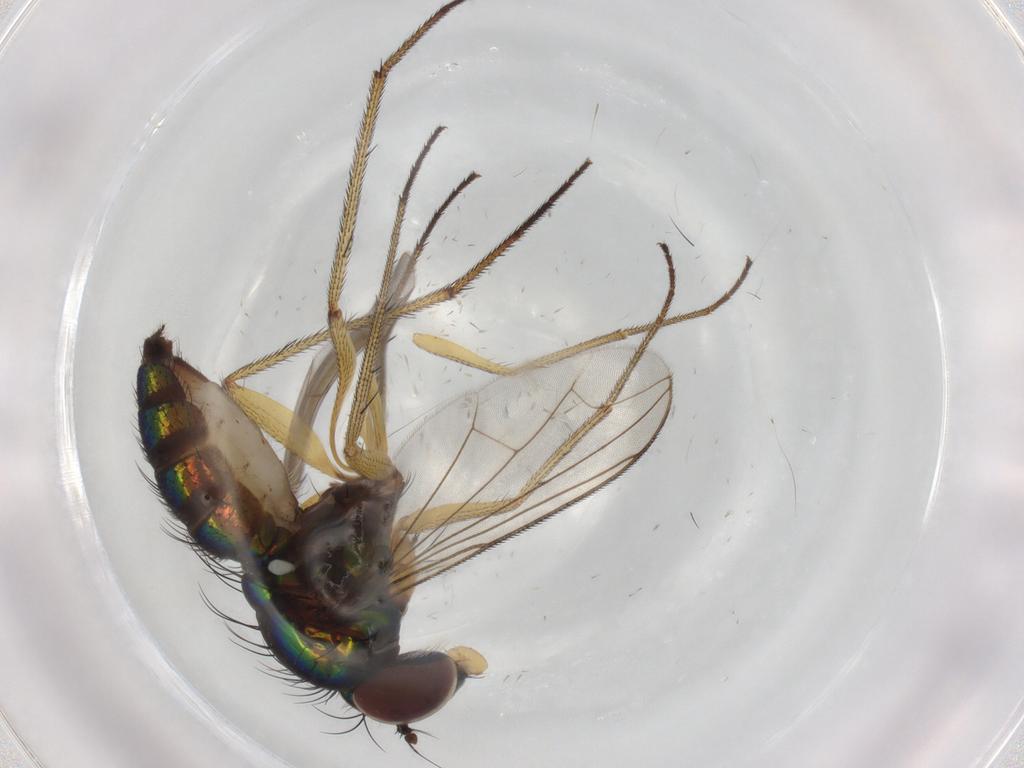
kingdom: Animalia
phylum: Arthropoda
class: Insecta
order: Diptera
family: Dolichopodidae
